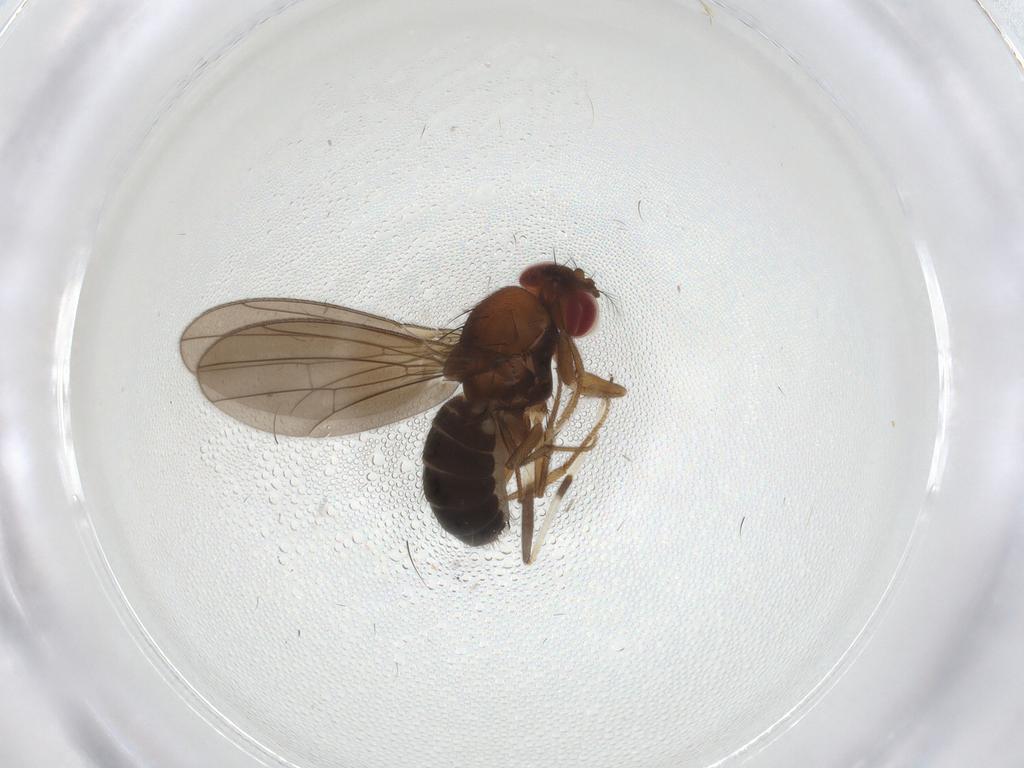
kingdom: Animalia
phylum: Arthropoda
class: Insecta
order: Diptera
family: Drosophilidae
